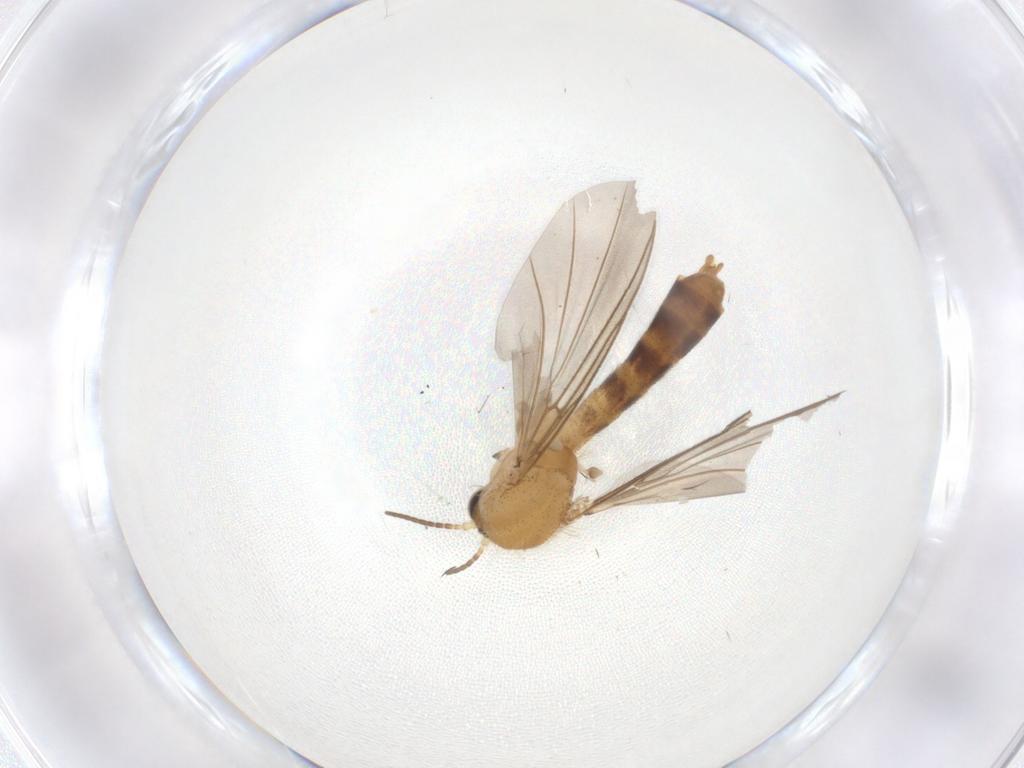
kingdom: Animalia
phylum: Arthropoda
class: Insecta
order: Diptera
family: Mycetophilidae
